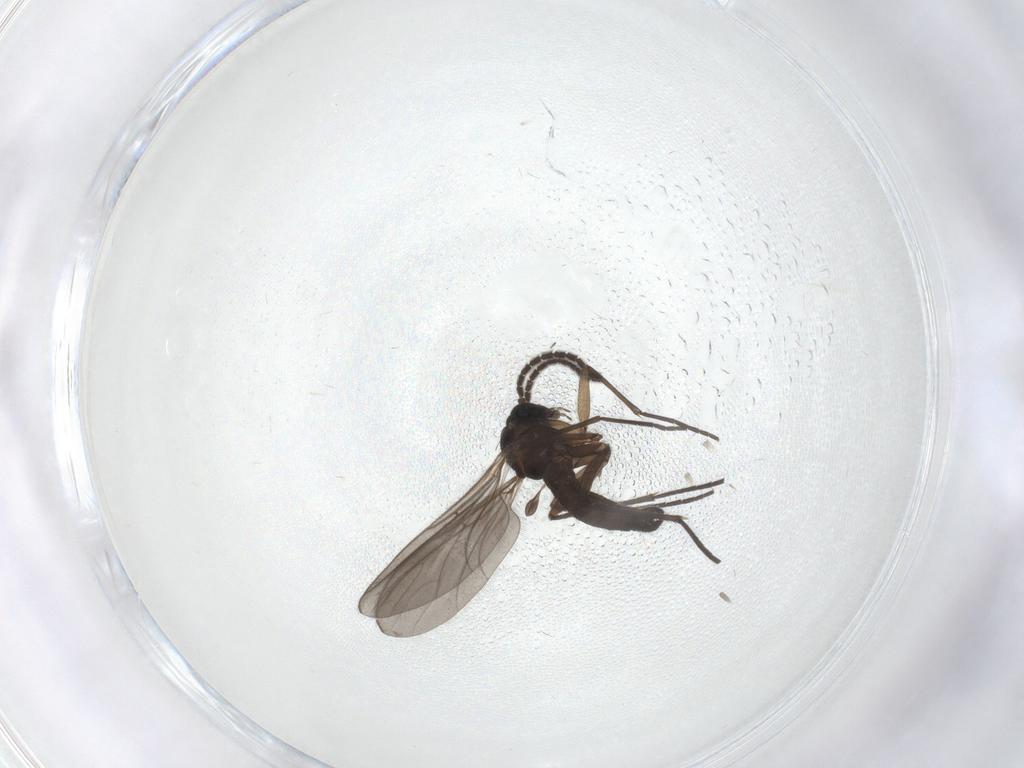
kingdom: Animalia
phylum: Arthropoda
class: Insecta
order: Diptera
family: Sciaridae
